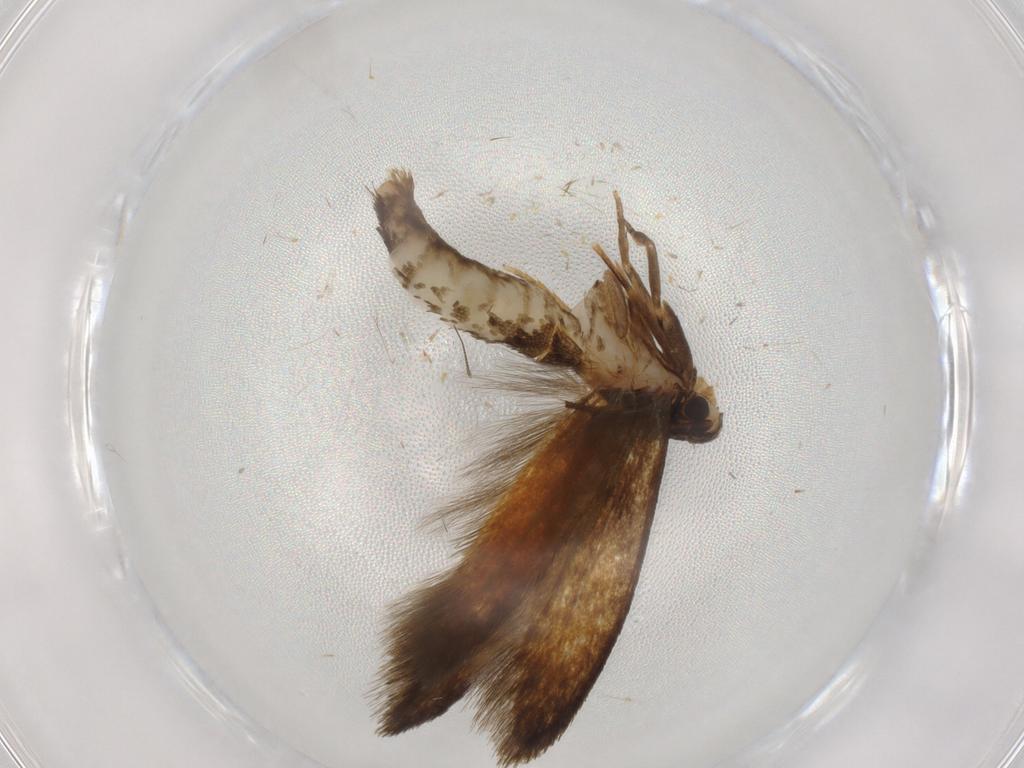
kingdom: Animalia
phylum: Arthropoda
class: Insecta
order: Lepidoptera
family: Tineidae
